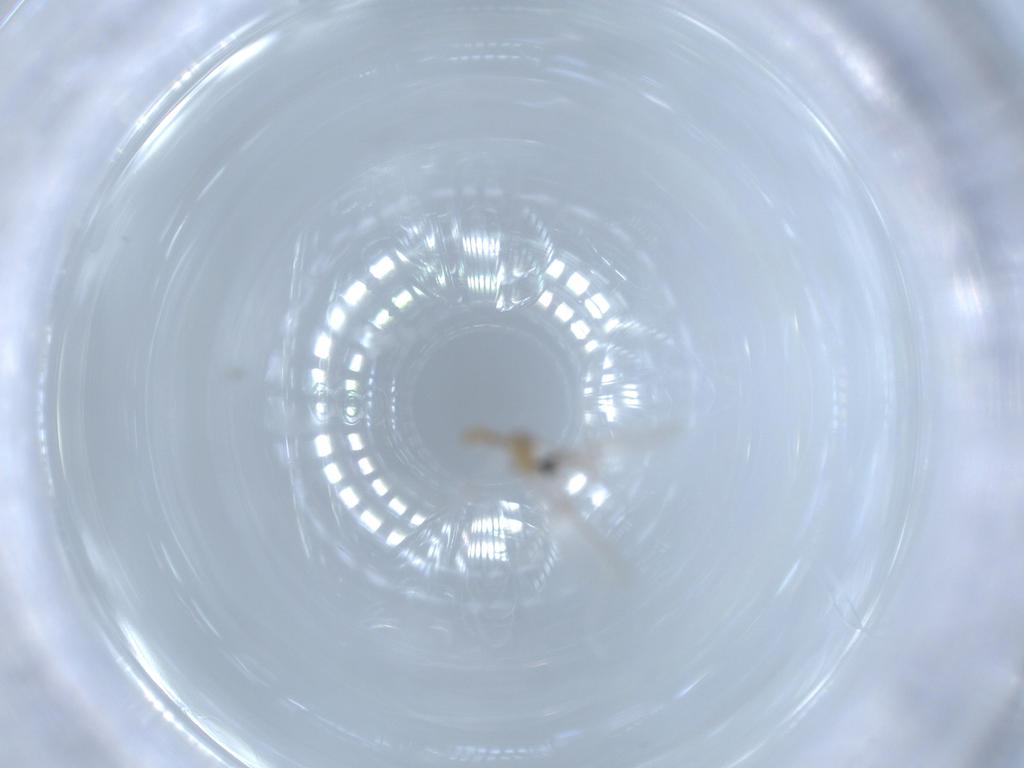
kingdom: Animalia
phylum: Arthropoda
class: Insecta
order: Diptera
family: Cecidomyiidae
